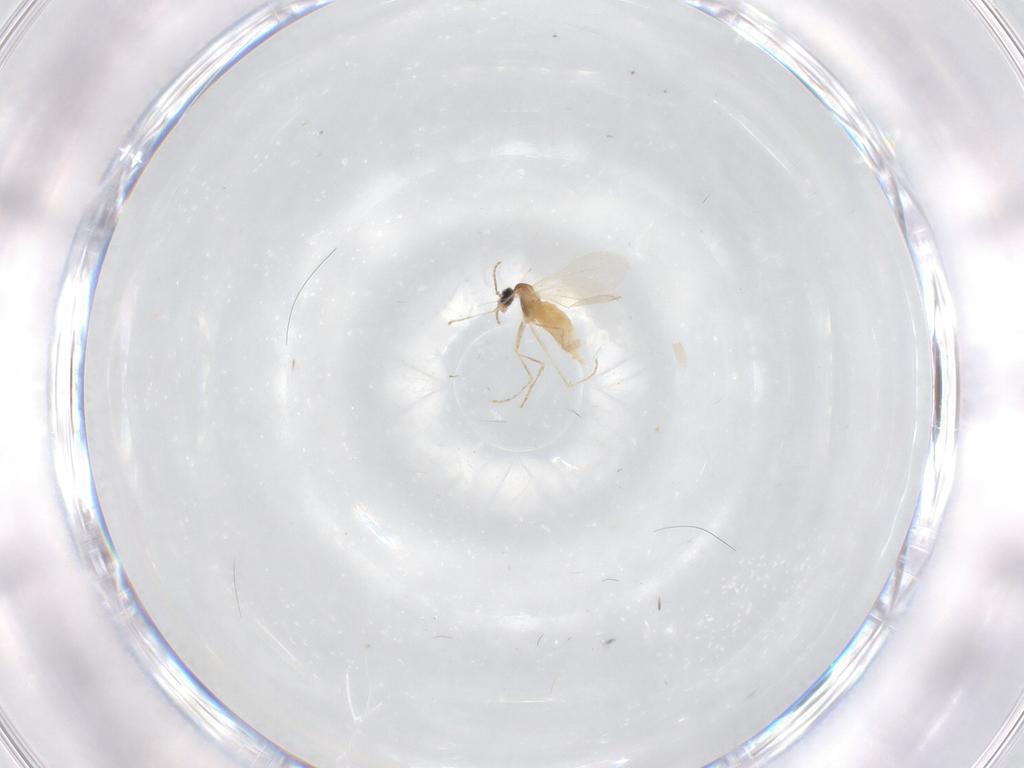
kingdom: Animalia
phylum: Arthropoda
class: Insecta
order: Diptera
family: Cecidomyiidae
